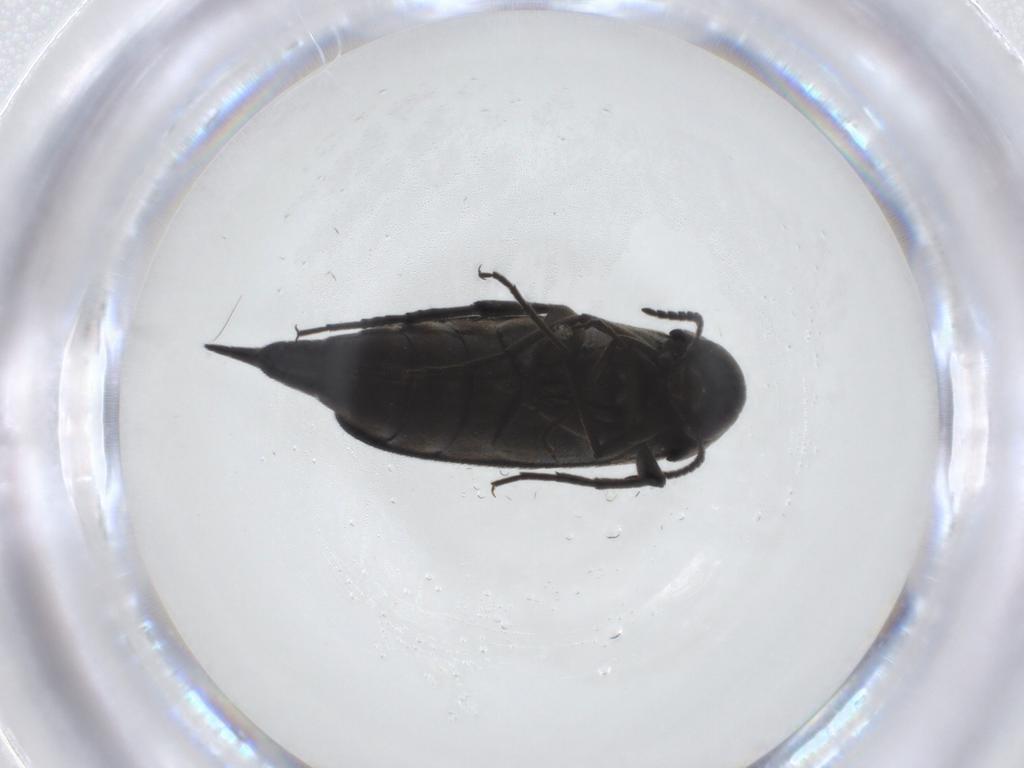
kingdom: Animalia
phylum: Arthropoda
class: Insecta
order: Coleoptera
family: Mordellidae
